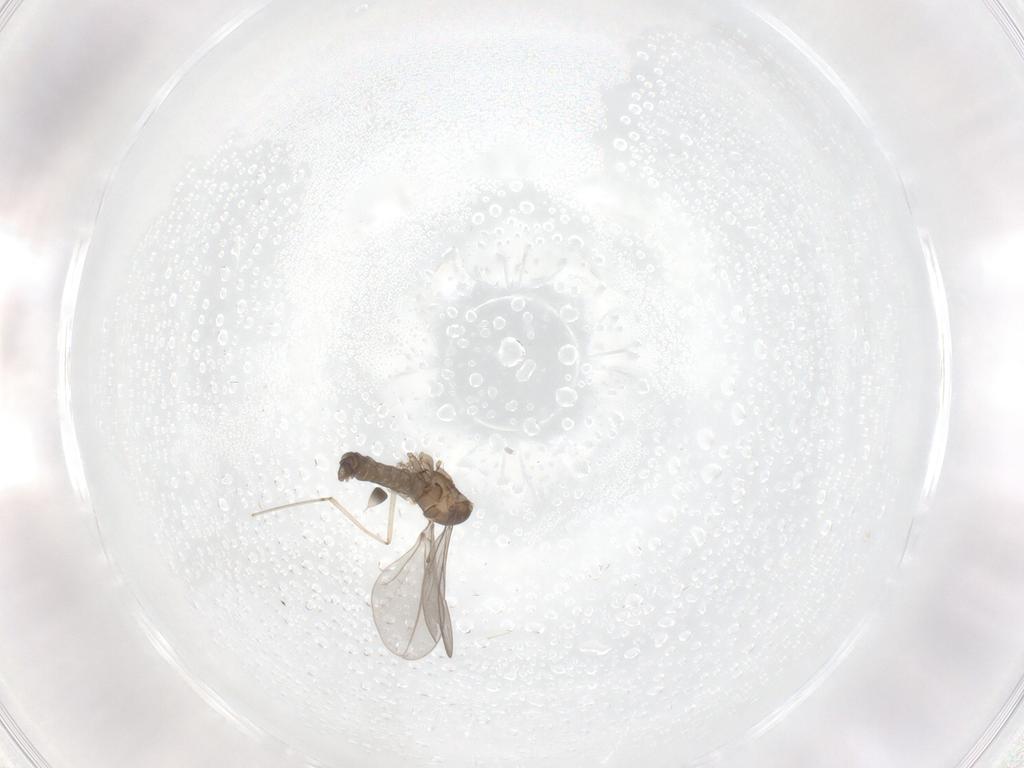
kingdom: Animalia
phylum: Arthropoda
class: Insecta
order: Diptera
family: Cecidomyiidae
